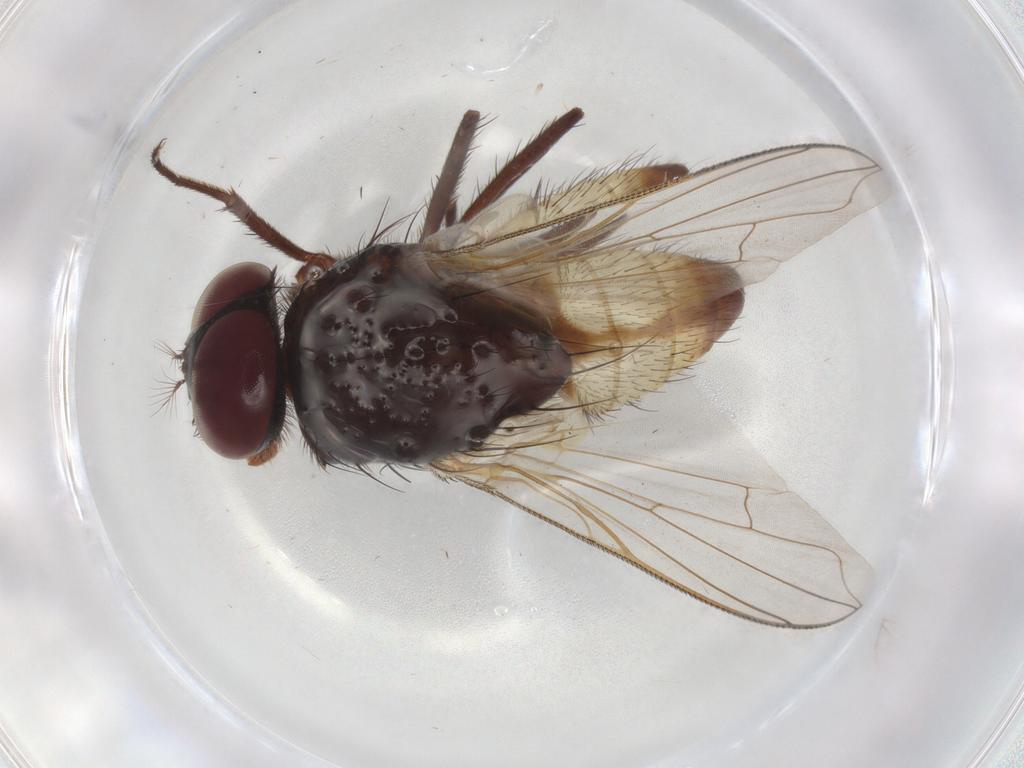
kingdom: Animalia
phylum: Arthropoda
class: Insecta
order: Diptera
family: Muscidae
